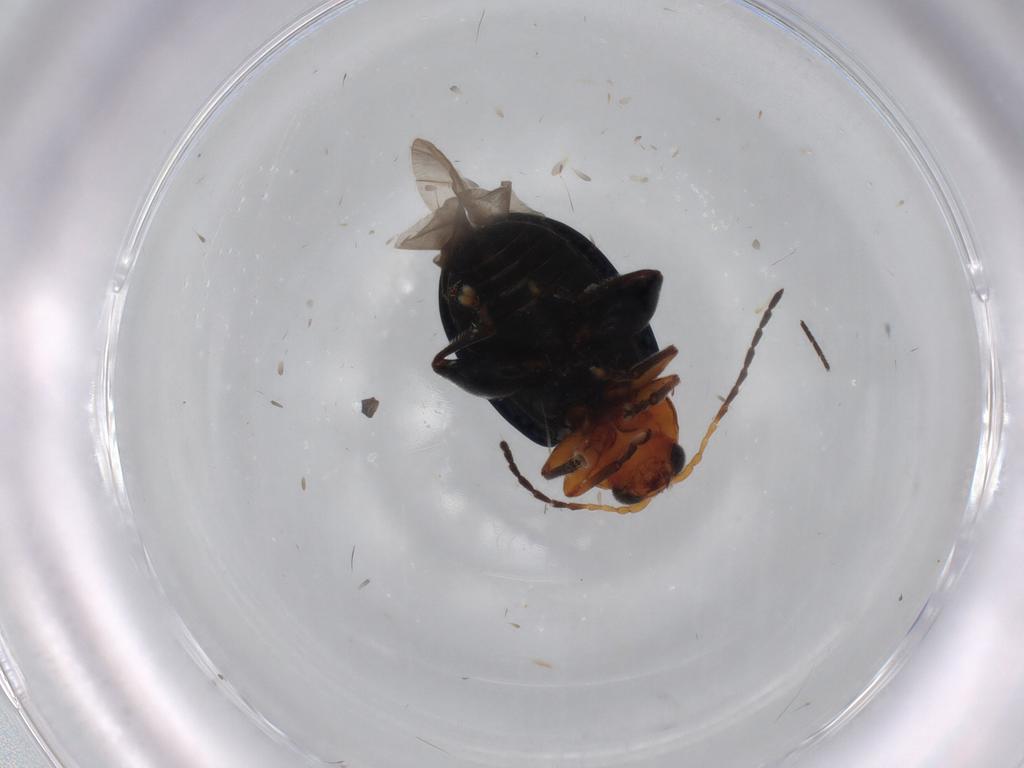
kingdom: Animalia
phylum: Arthropoda
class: Insecta
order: Coleoptera
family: Chrysomelidae
